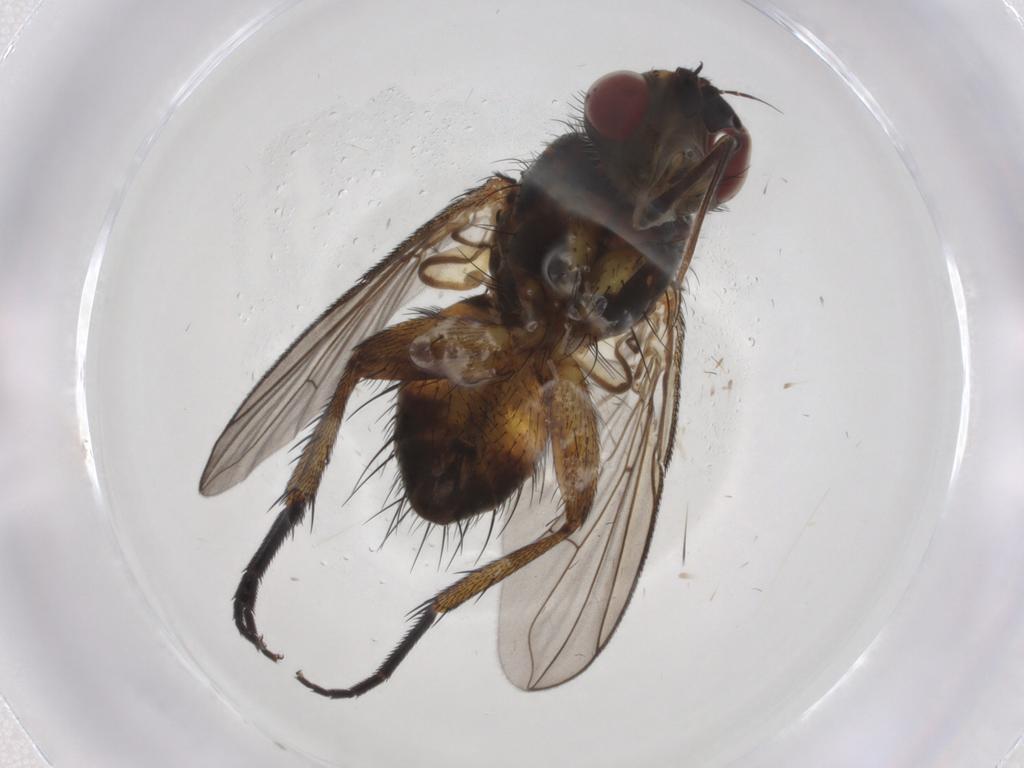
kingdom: Animalia
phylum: Arthropoda
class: Insecta
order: Diptera
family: Tachinidae
